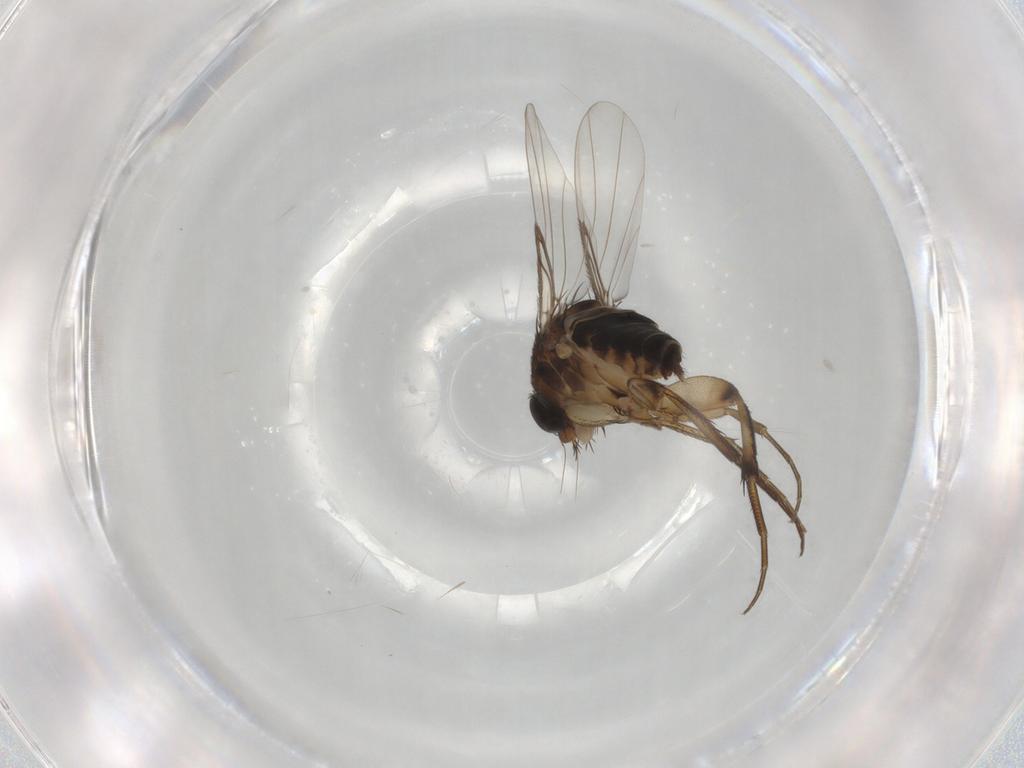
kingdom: Animalia
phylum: Arthropoda
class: Insecta
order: Diptera
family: Phoridae
